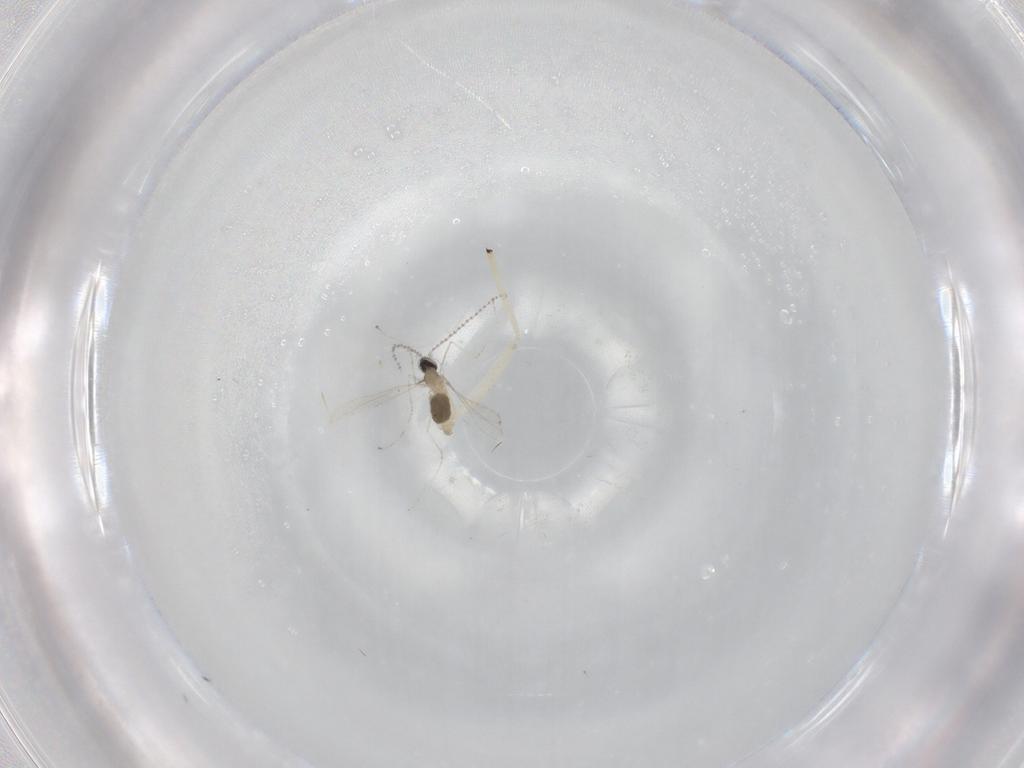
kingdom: Animalia
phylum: Arthropoda
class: Insecta
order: Diptera
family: Cecidomyiidae
